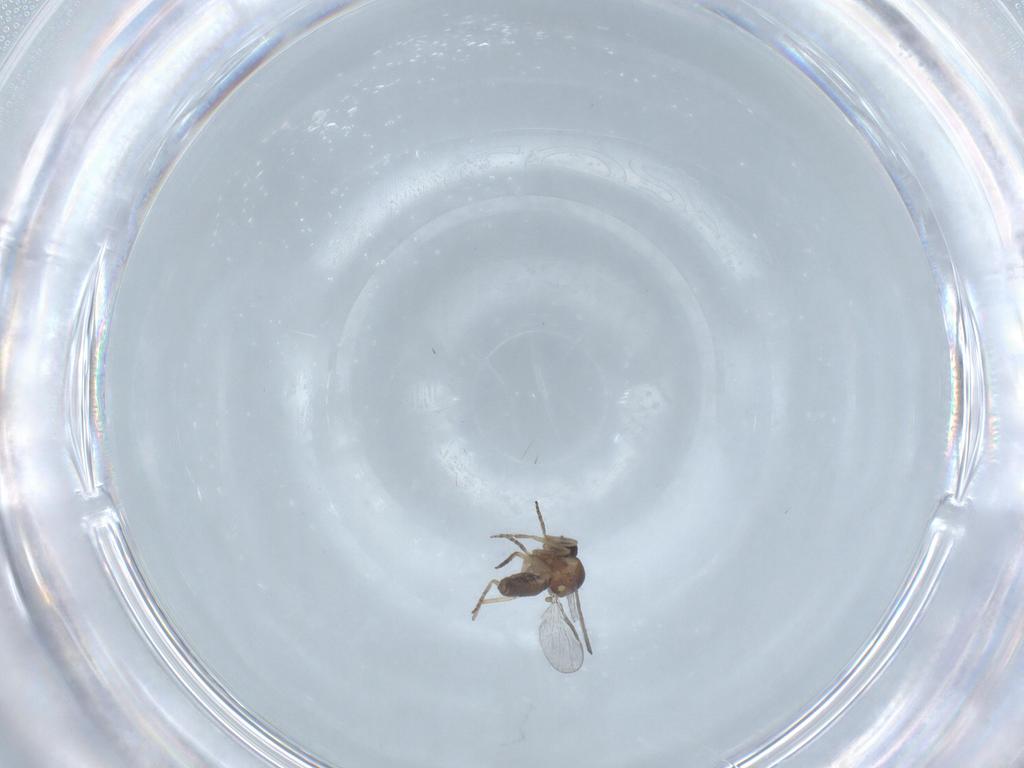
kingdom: Animalia
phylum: Arthropoda
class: Insecta
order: Diptera
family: Ceratopogonidae
